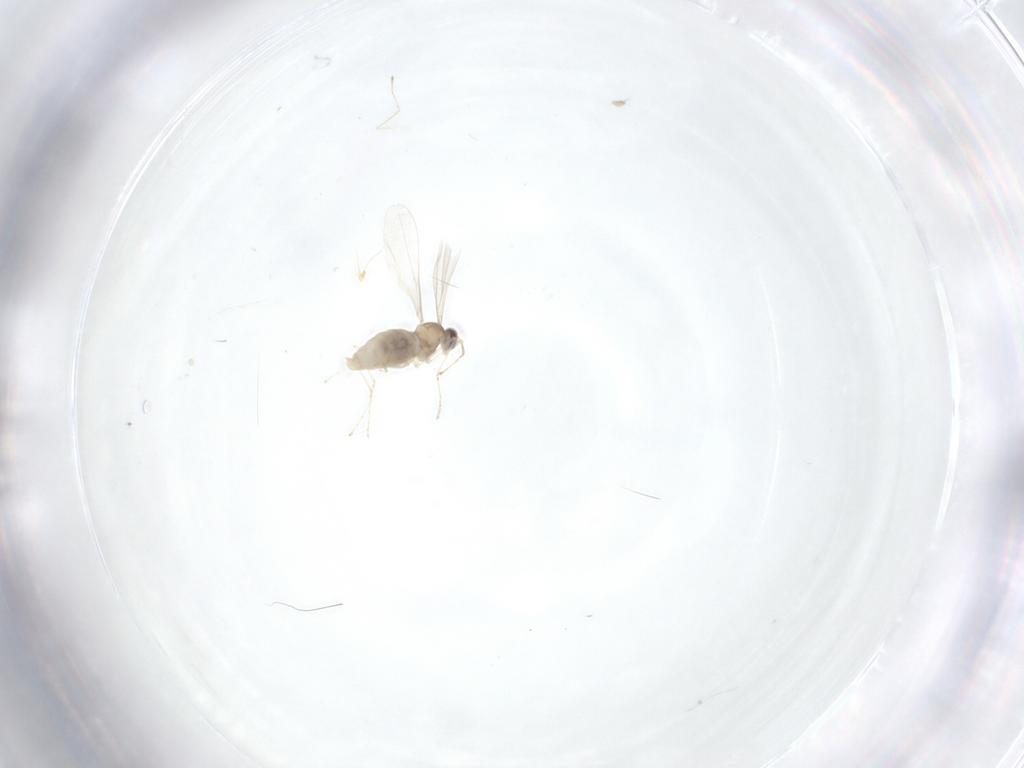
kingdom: Animalia
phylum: Arthropoda
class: Insecta
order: Diptera
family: Cecidomyiidae
